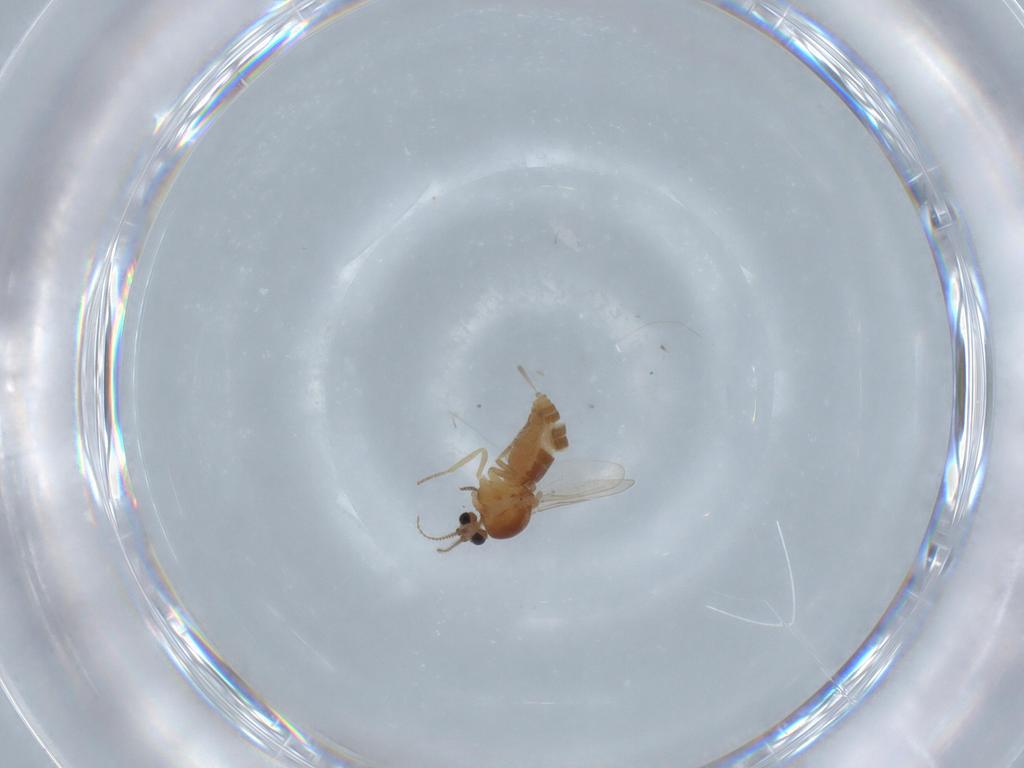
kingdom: Animalia
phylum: Arthropoda
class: Insecta
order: Diptera
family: Ceratopogonidae
